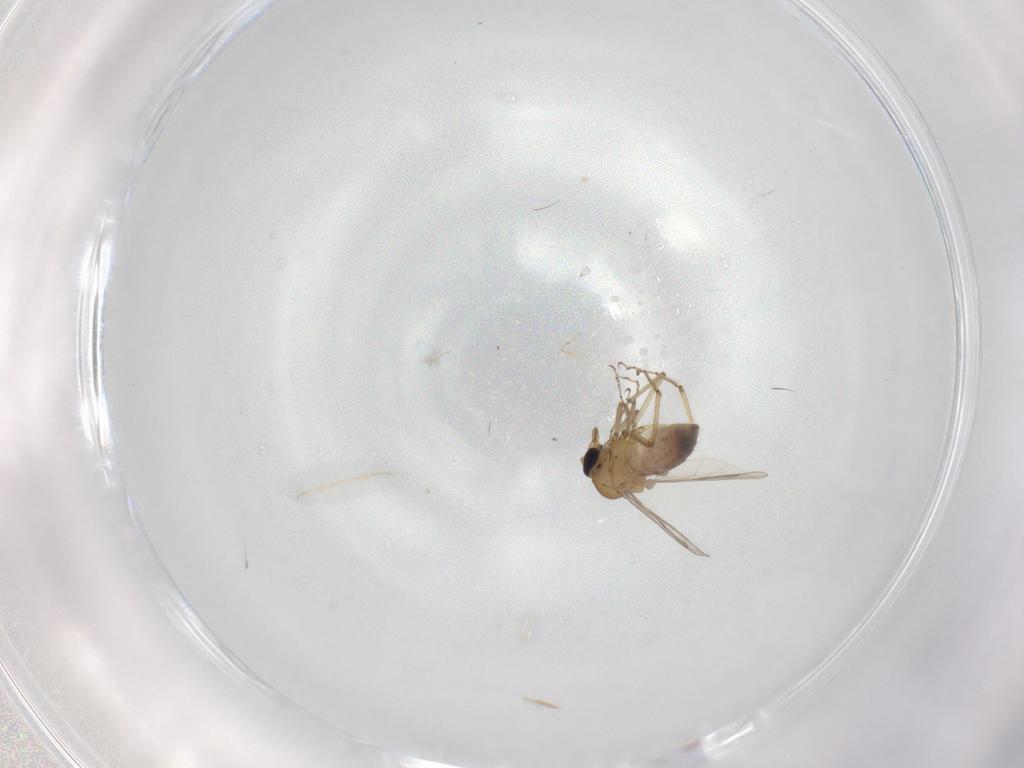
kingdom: Animalia
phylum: Arthropoda
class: Insecta
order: Diptera
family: Ceratopogonidae
